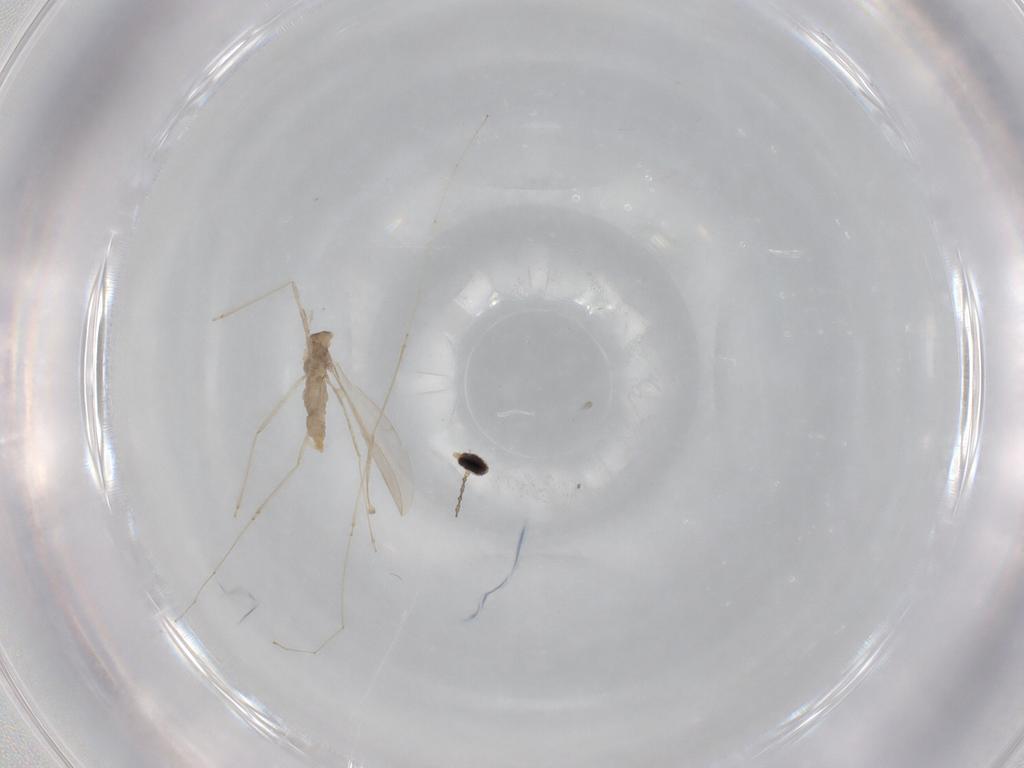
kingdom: Animalia
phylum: Arthropoda
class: Insecta
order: Diptera
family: Cecidomyiidae
